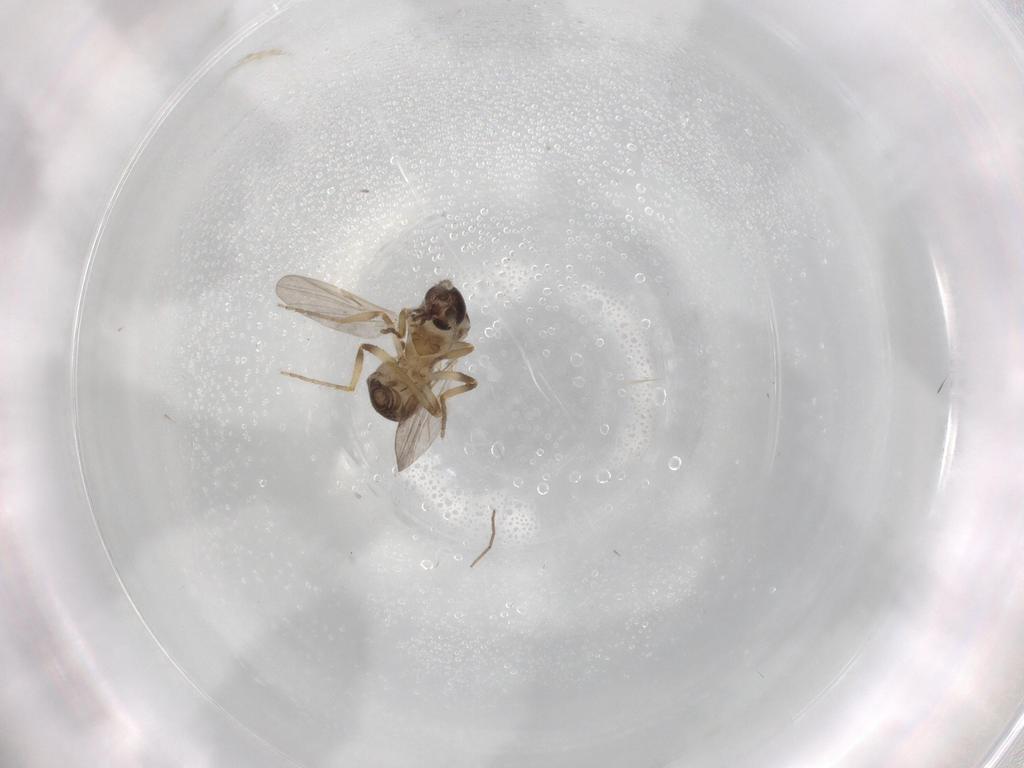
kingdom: Animalia
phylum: Arthropoda
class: Insecta
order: Diptera
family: Ceratopogonidae
